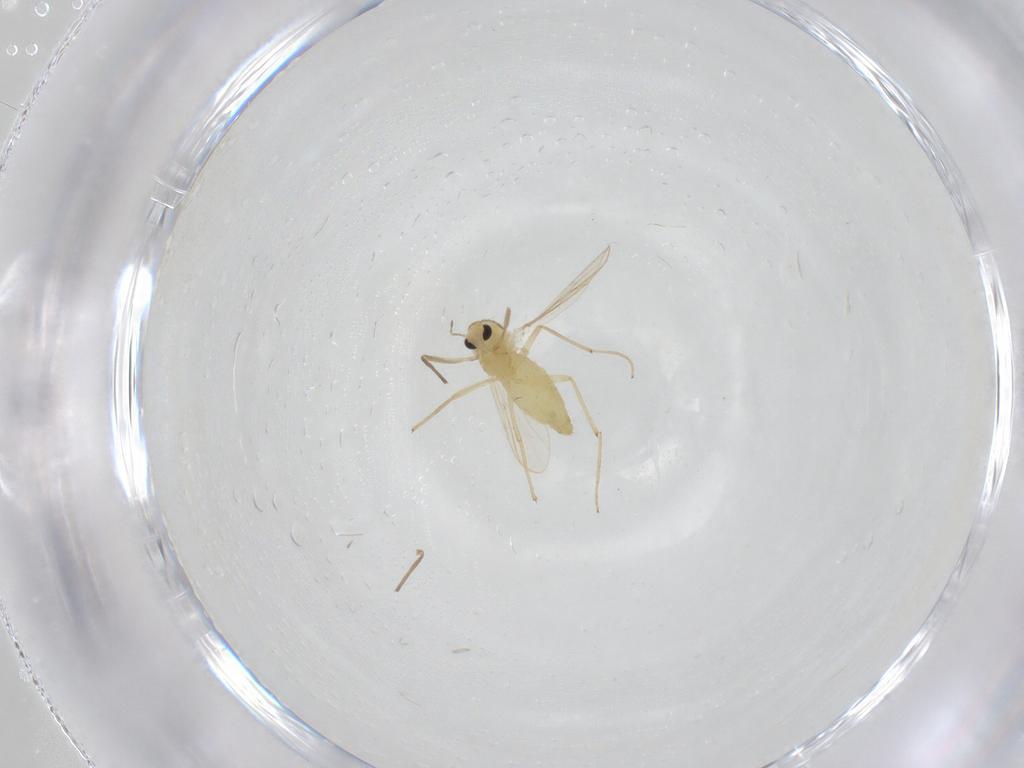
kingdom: Animalia
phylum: Arthropoda
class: Insecta
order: Diptera
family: Chironomidae
